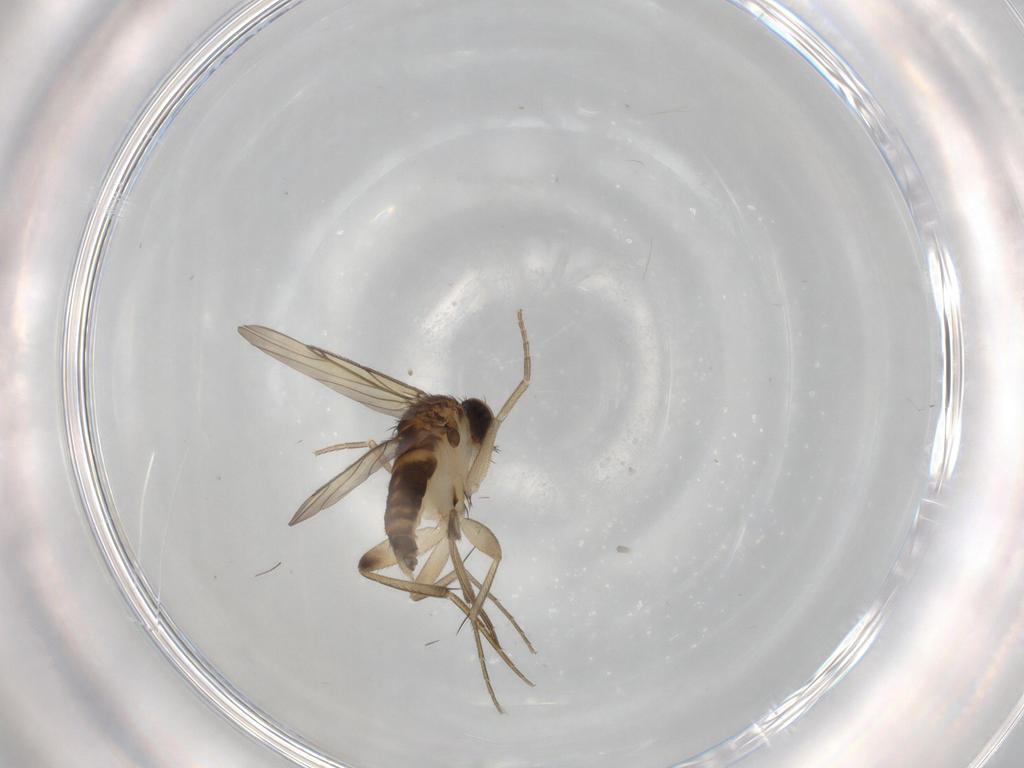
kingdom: Animalia
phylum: Arthropoda
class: Insecta
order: Diptera
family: Phoridae
